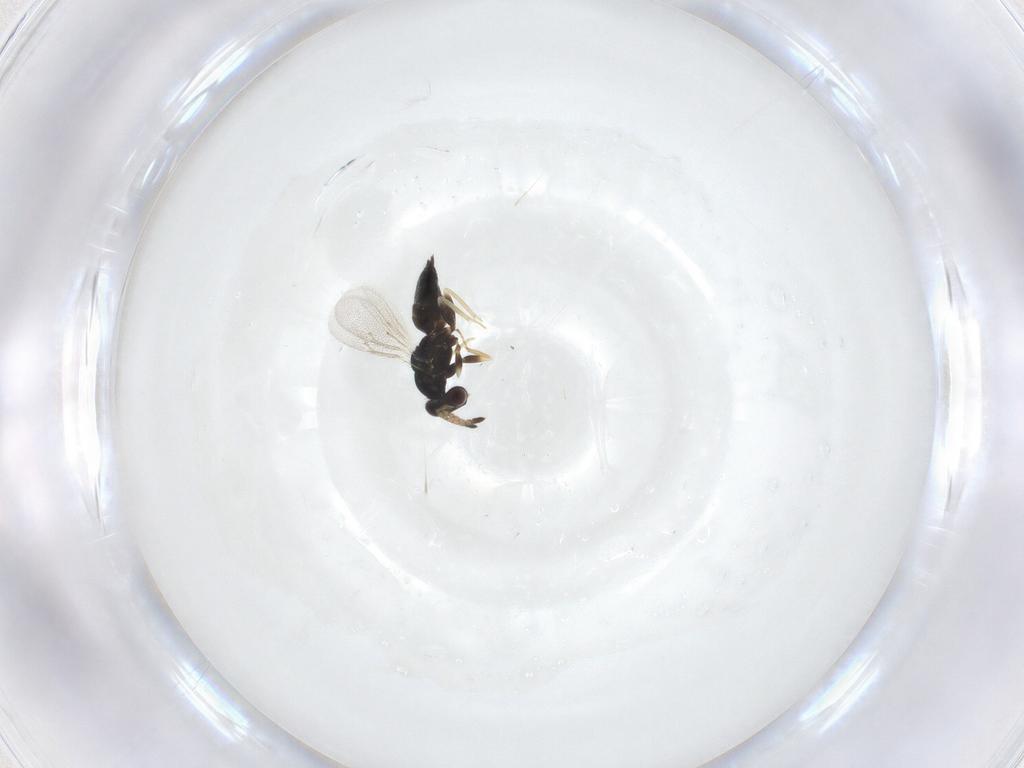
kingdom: Animalia
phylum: Arthropoda
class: Insecta
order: Hymenoptera
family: Eulophidae
